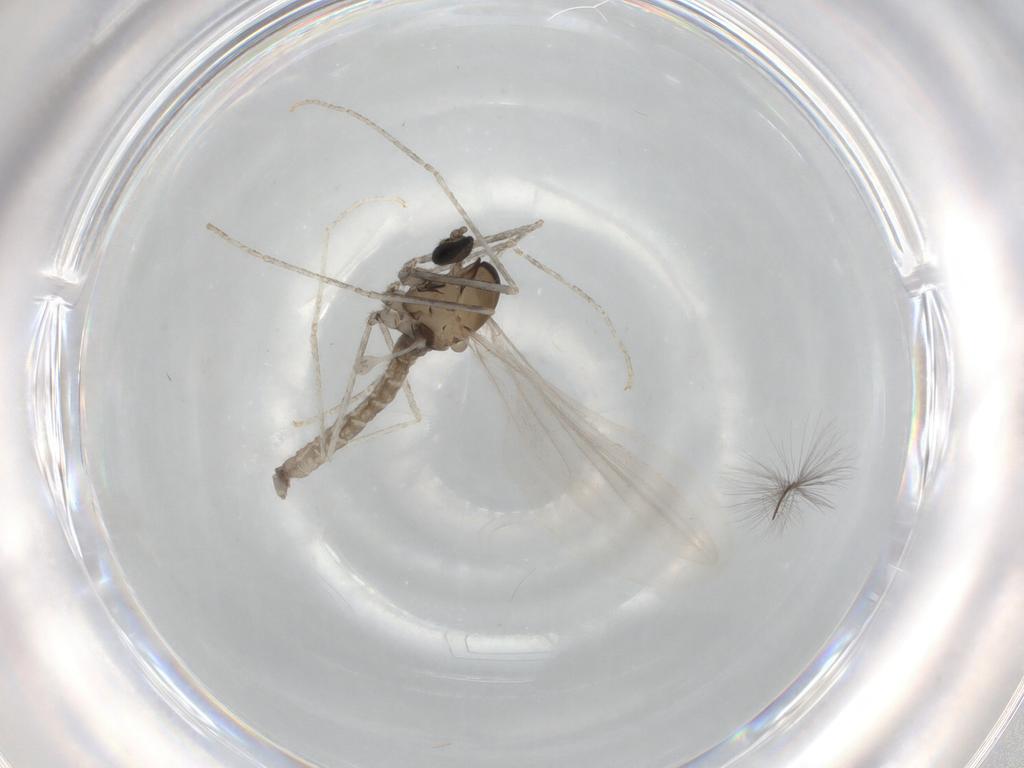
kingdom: Animalia
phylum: Arthropoda
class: Insecta
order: Diptera
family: Cecidomyiidae
